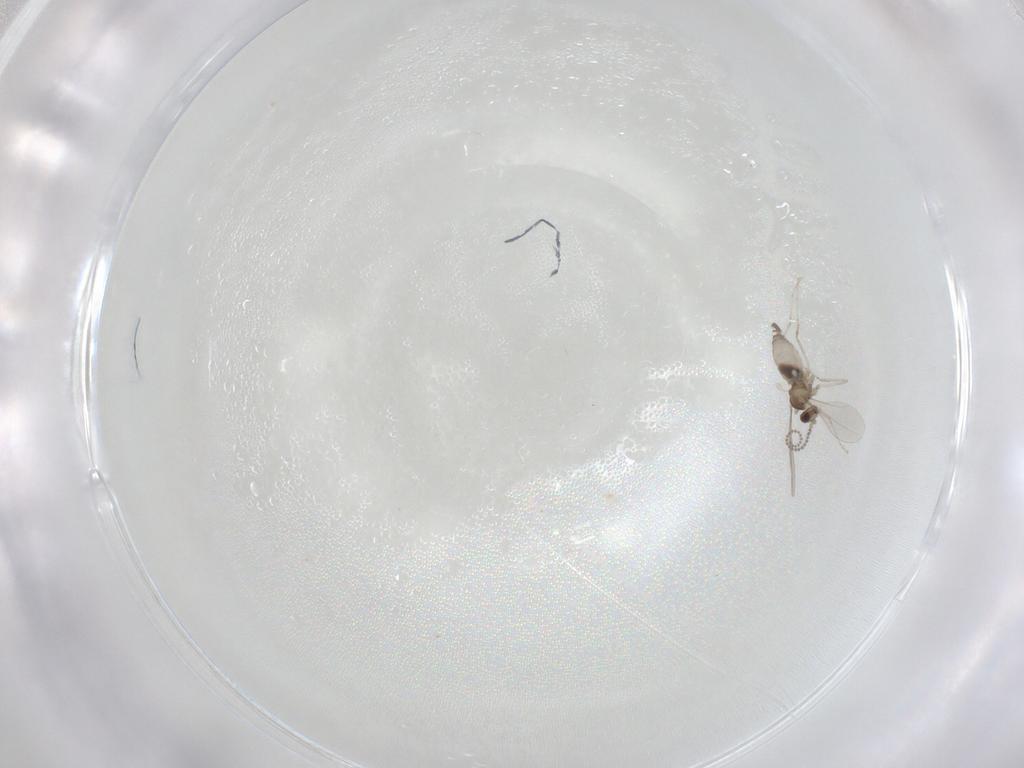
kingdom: Animalia
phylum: Arthropoda
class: Insecta
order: Diptera
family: Cecidomyiidae
